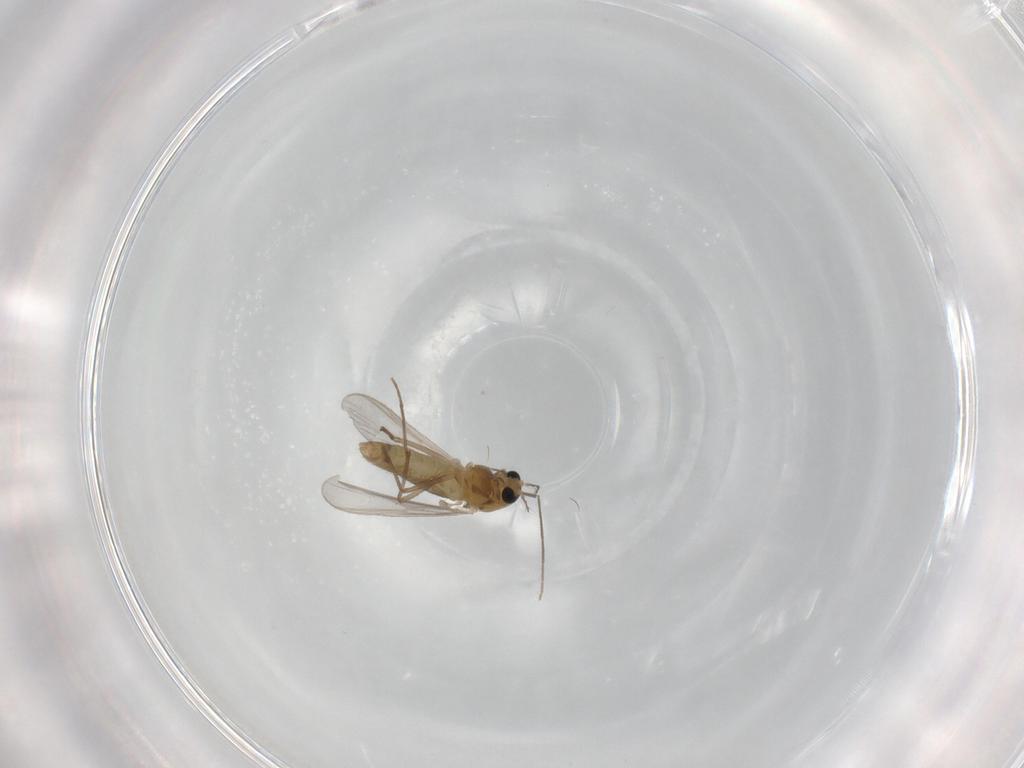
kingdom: Animalia
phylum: Arthropoda
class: Insecta
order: Diptera
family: Chironomidae
